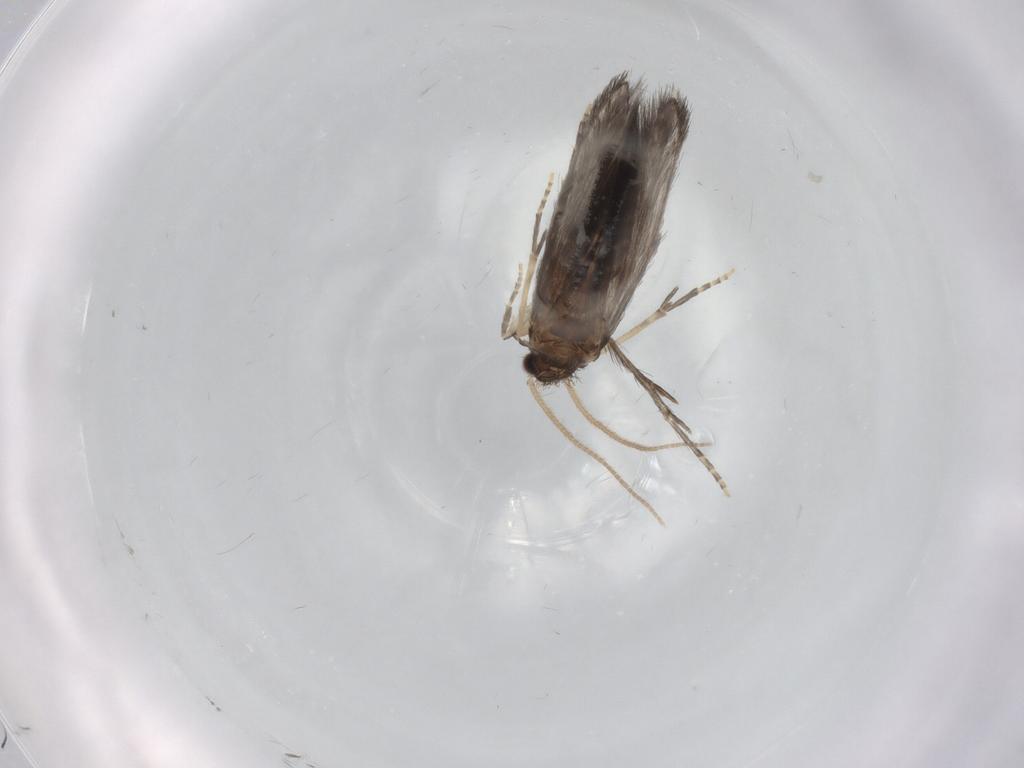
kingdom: Animalia
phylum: Arthropoda
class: Insecta
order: Trichoptera
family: Hydroptilidae
